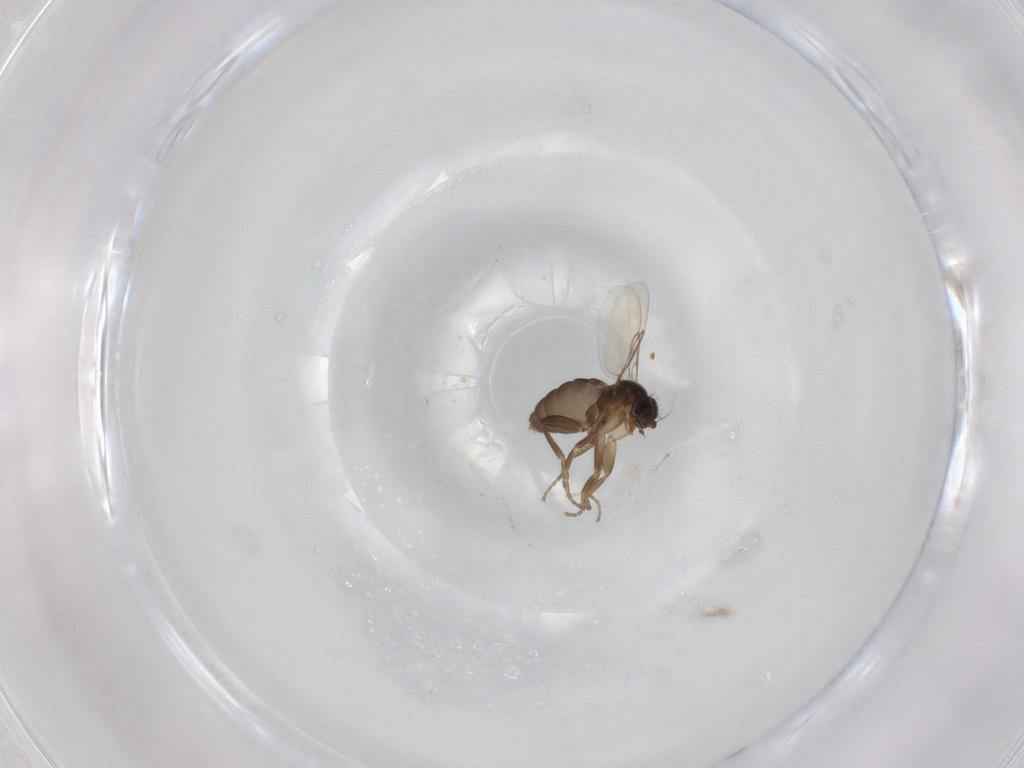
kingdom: Animalia
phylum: Arthropoda
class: Insecta
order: Diptera
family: Phoridae
